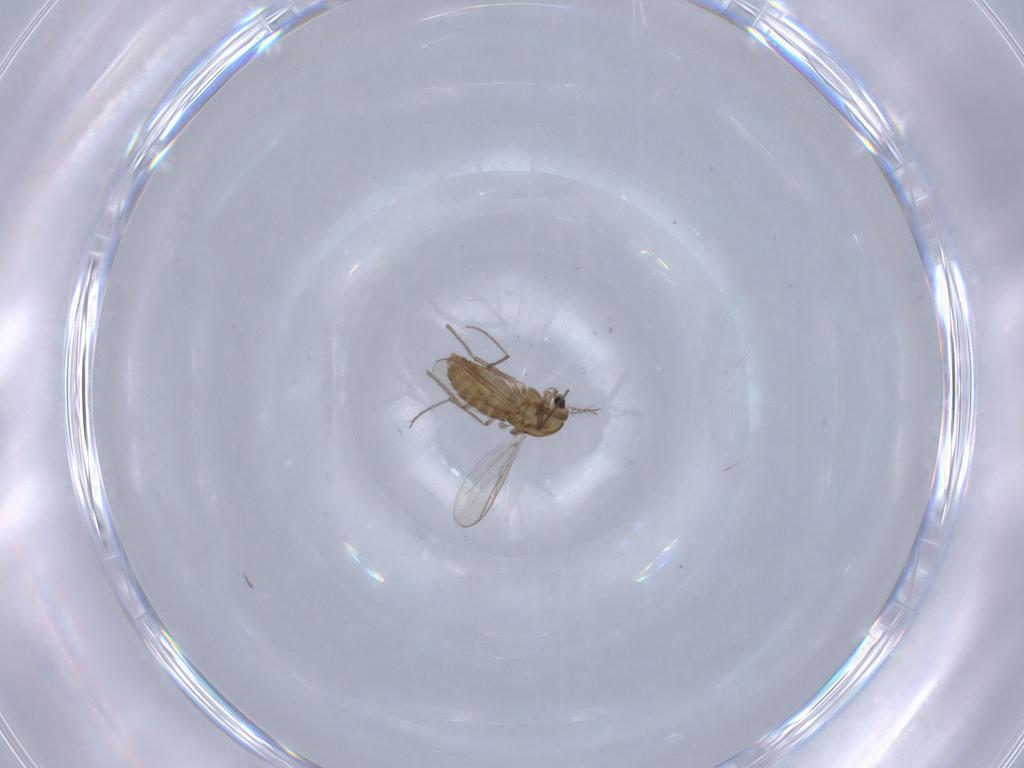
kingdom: Animalia
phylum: Arthropoda
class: Insecta
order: Diptera
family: Chironomidae
